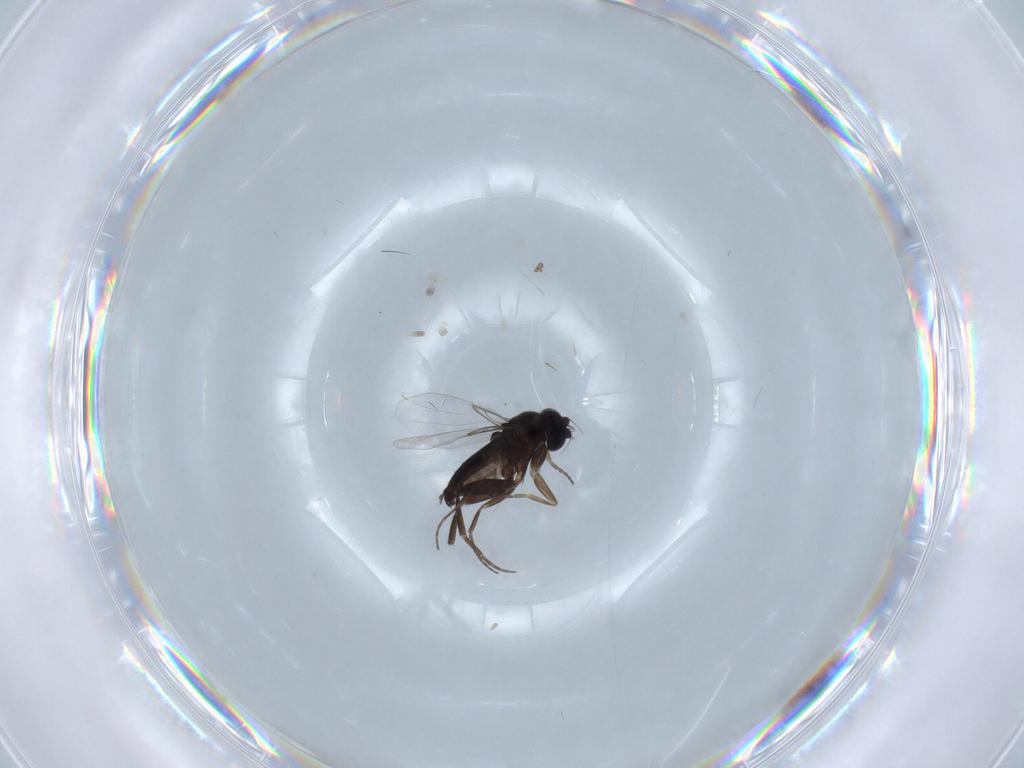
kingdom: Animalia
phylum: Arthropoda
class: Insecta
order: Diptera
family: Phoridae
